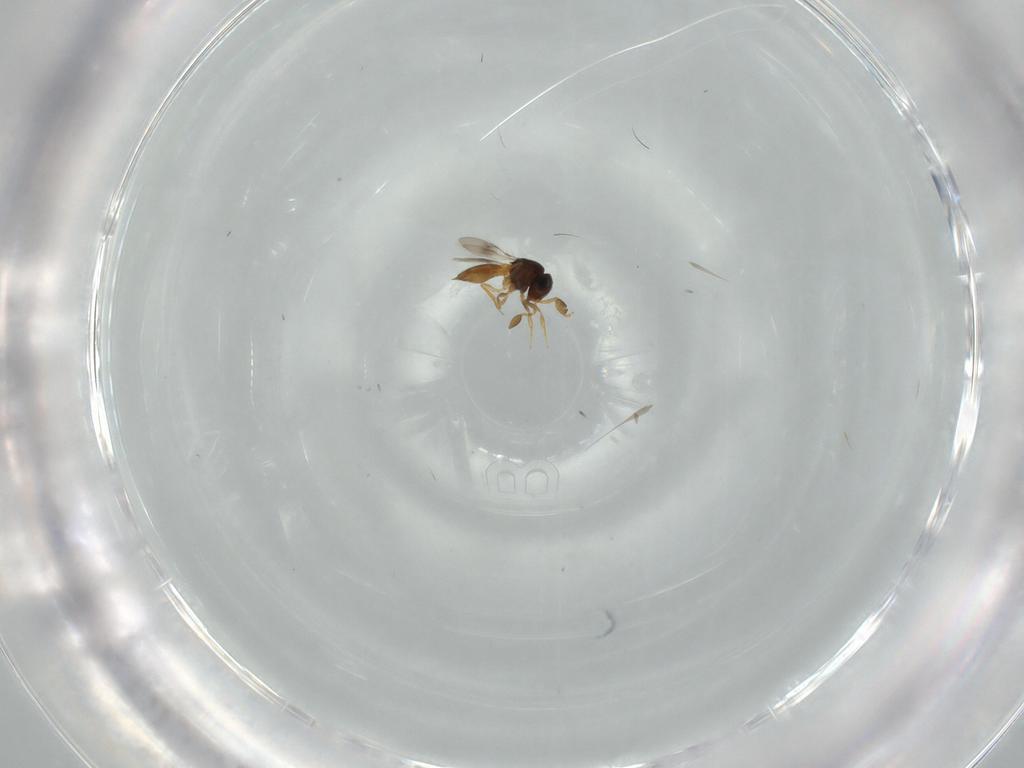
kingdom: Animalia
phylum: Arthropoda
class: Insecta
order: Hymenoptera
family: Scelionidae
